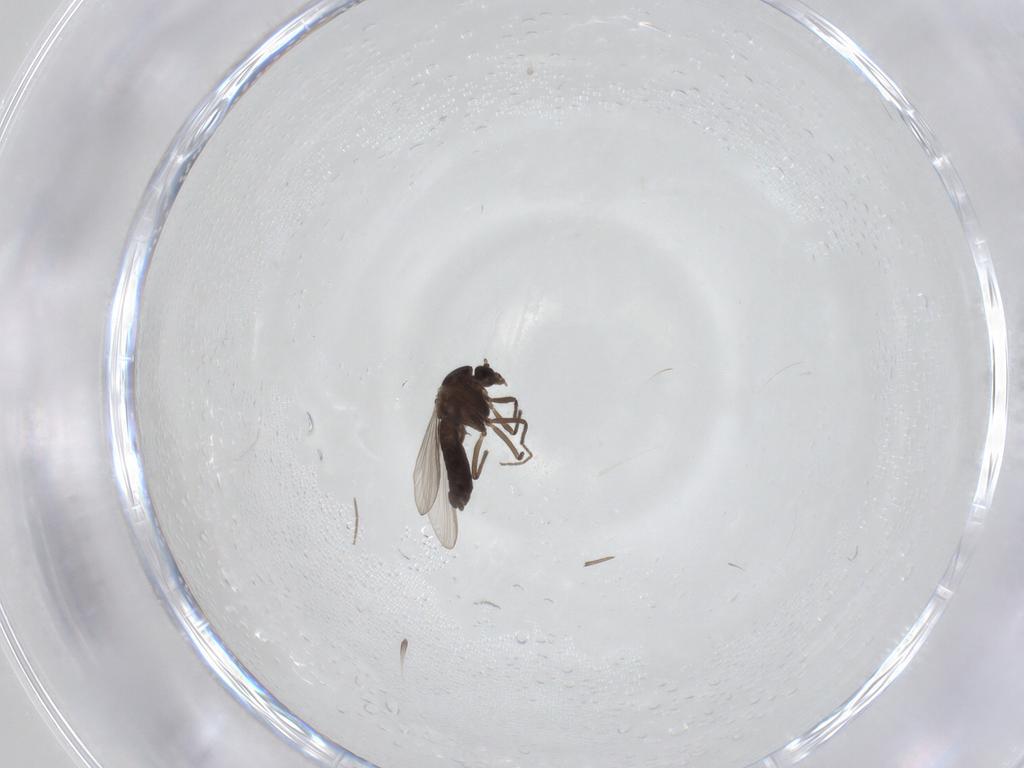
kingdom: Animalia
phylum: Arthropoda
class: Insecta
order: Diptera
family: Chironomidae
